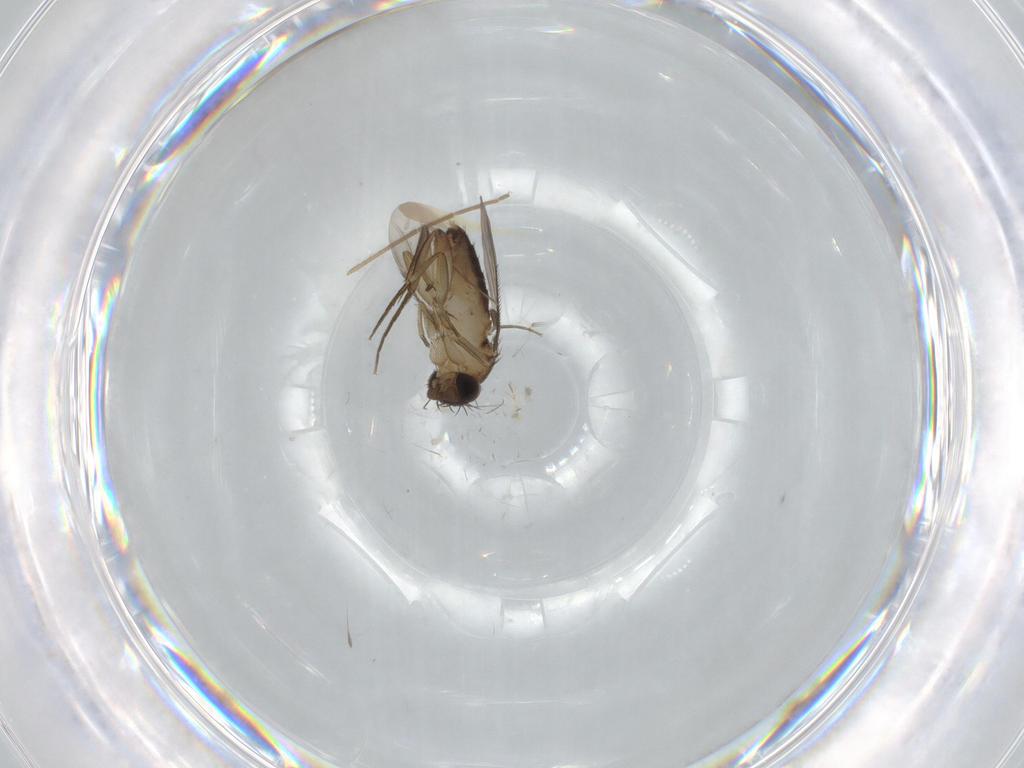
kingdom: Animalia
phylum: Arthropoda
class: Insecta
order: Diptera
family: Phoridae
